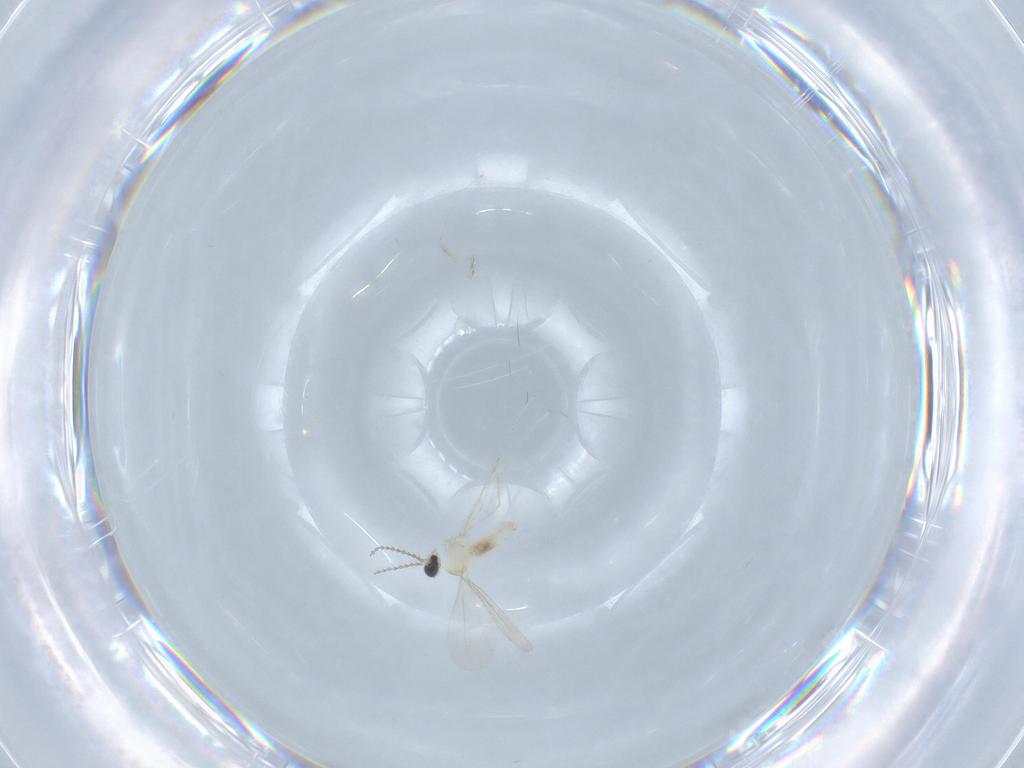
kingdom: Animalia
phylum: Arthropoda
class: Insecta
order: Diptera
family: Cecidomyiidae
